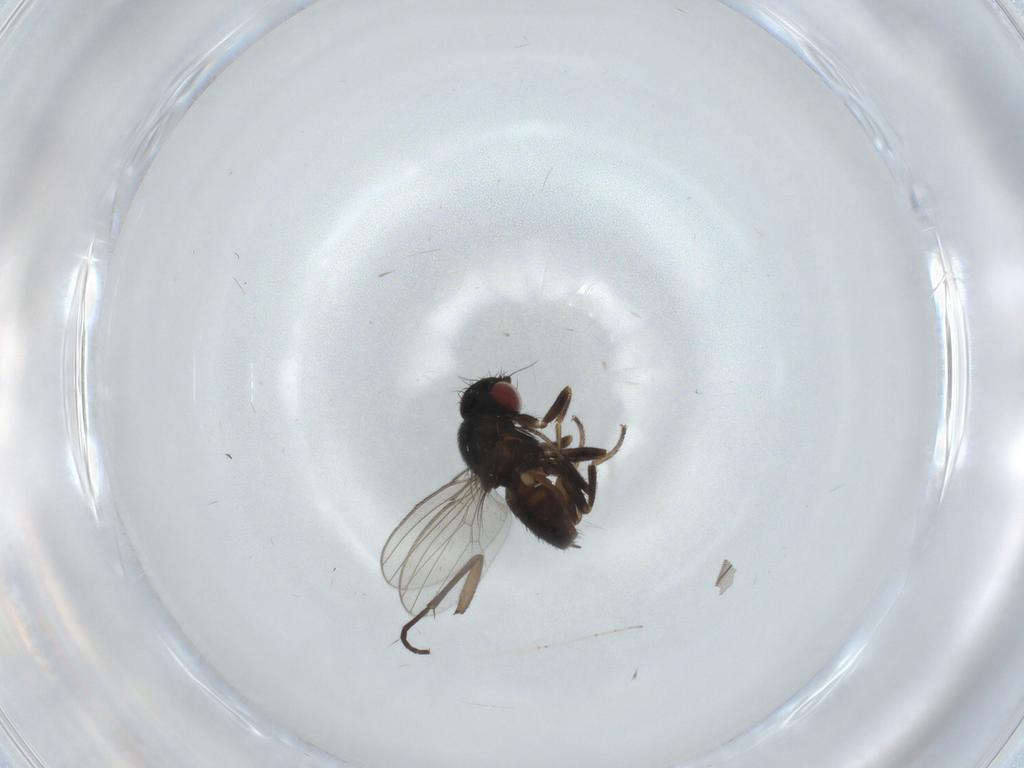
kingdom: Animalia
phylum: Arthropoda
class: Insecta
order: Diptera
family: Milichiidae
